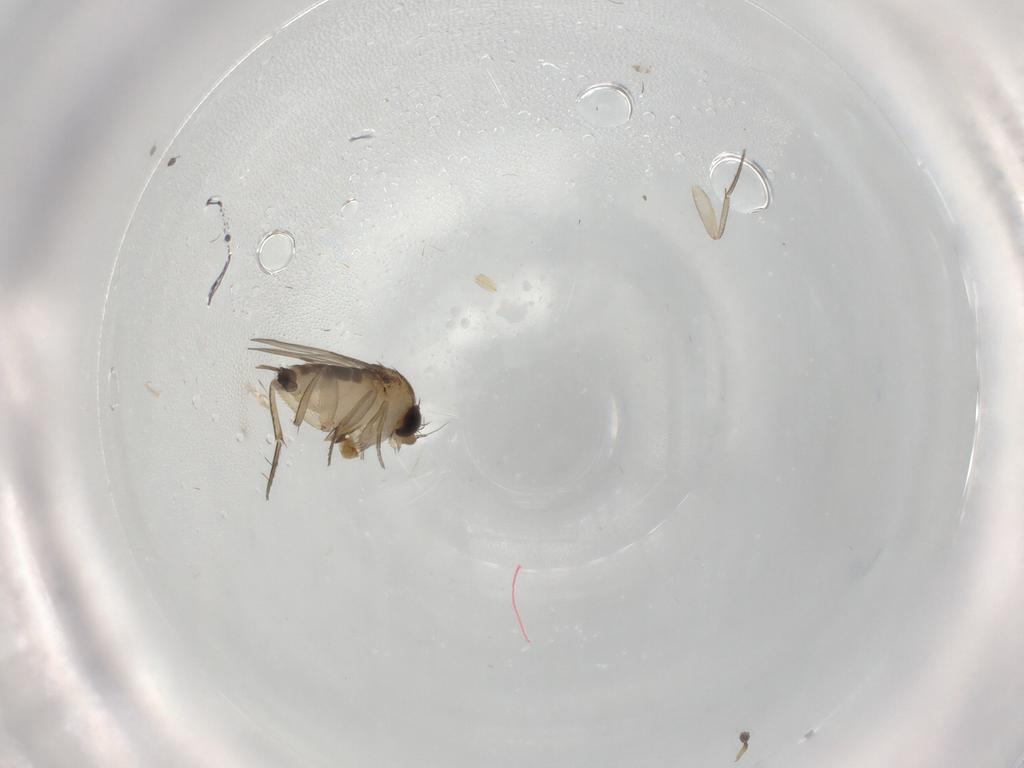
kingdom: Animalia
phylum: Arthropoda
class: Insecta
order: Diptera
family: Phoridae
